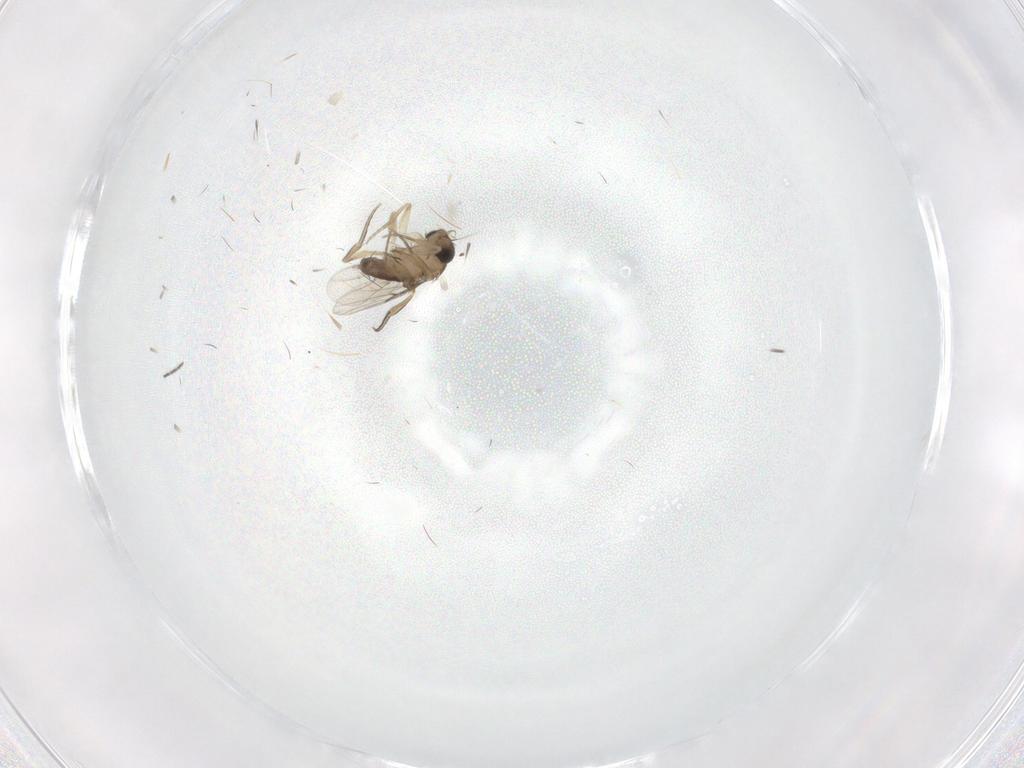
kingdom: Animalia
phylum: Arthropoda
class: Insecta
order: Diptera
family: Phoridae
